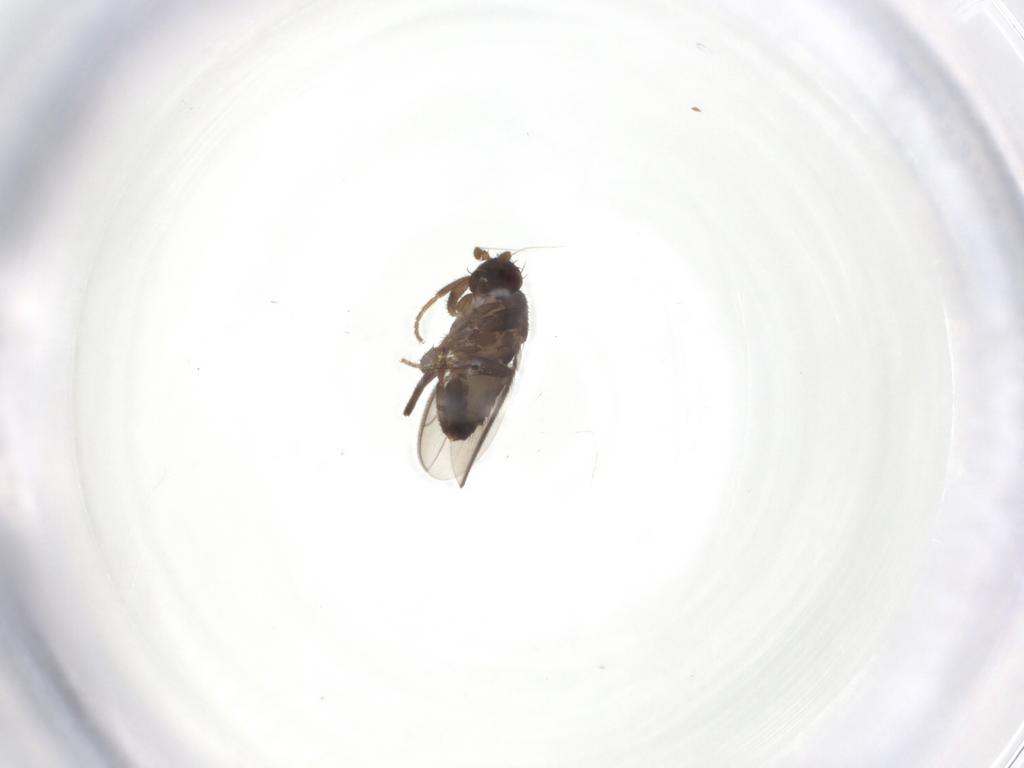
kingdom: Animalia
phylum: Arthropoda
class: Insecta
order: Diptera
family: Sphaeroceridae
